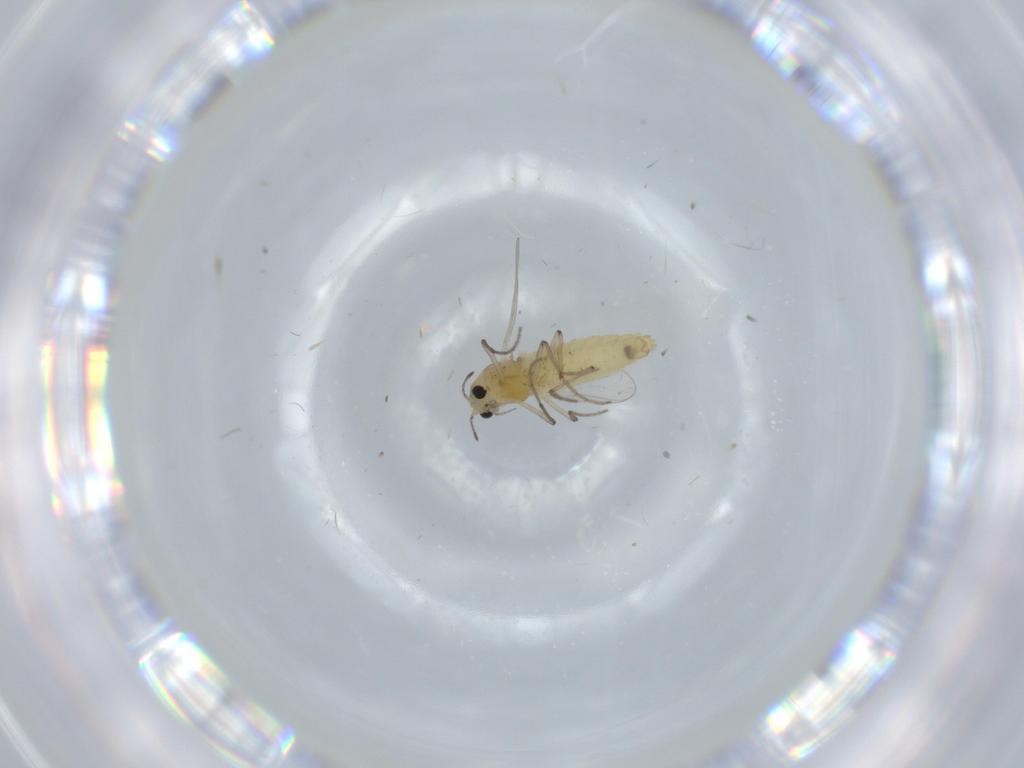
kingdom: Animalia
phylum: Arthropoda
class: Insecta
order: Diptera
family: Chironomidae
